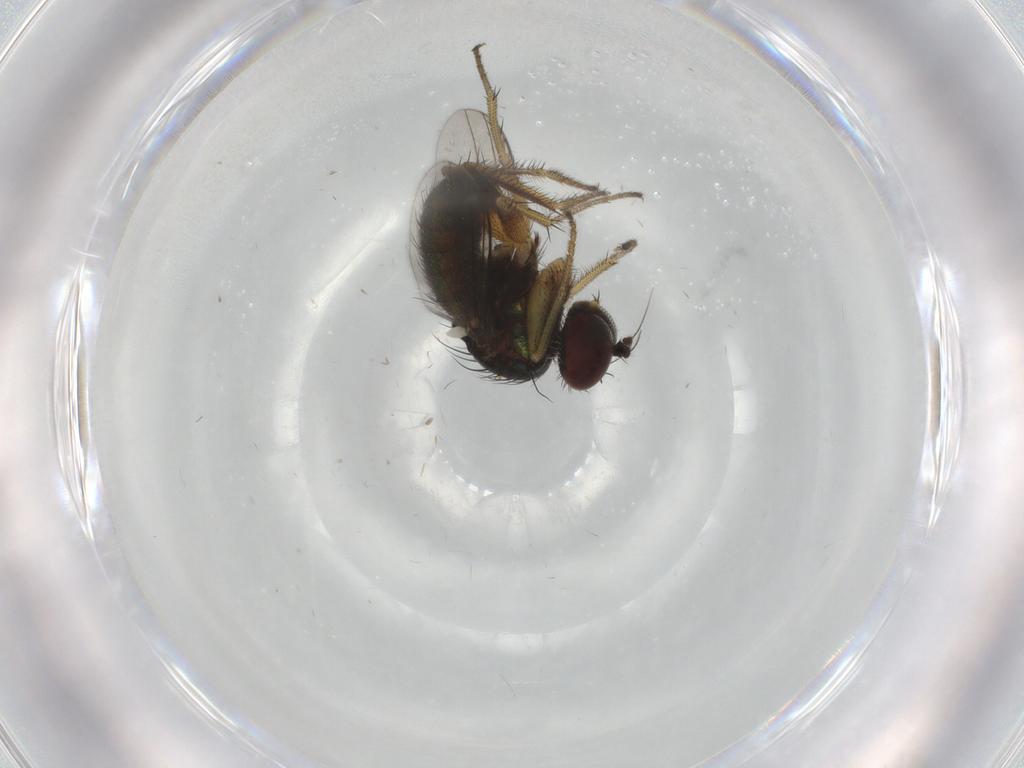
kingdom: Animalia
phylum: Arthropoda
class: Insecta
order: Diptera
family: Dolichopodidae
